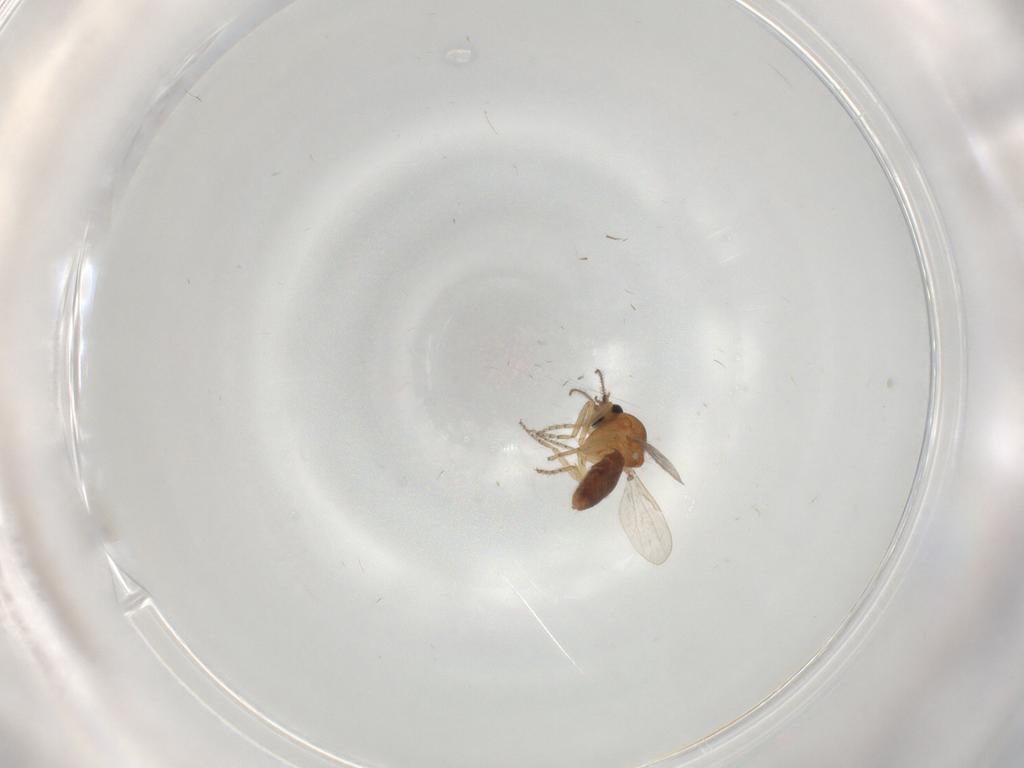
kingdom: Animalia
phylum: Arthropoda
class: Insecta
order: Diptera
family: Ceratopogonidae
